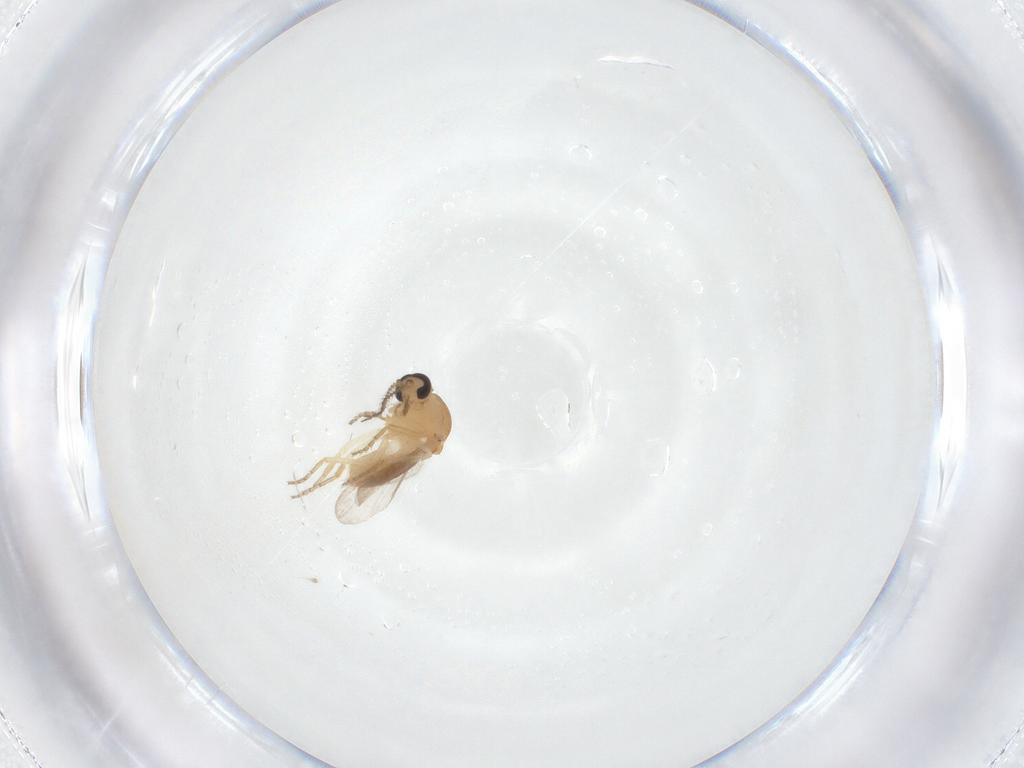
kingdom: Animalia
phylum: Arthropoda
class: Insecta
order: Diptera
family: Ceratopogonidae
